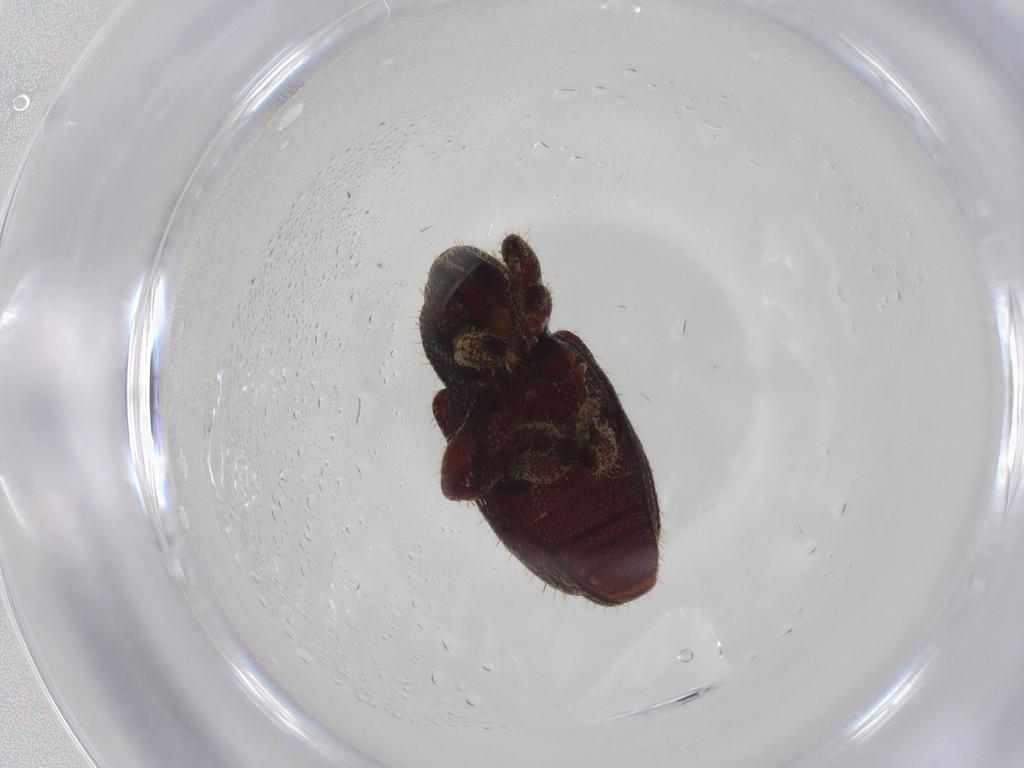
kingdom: Animalia
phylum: Arthropoda
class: Insecta
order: Coleoptera
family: Curculionidae
